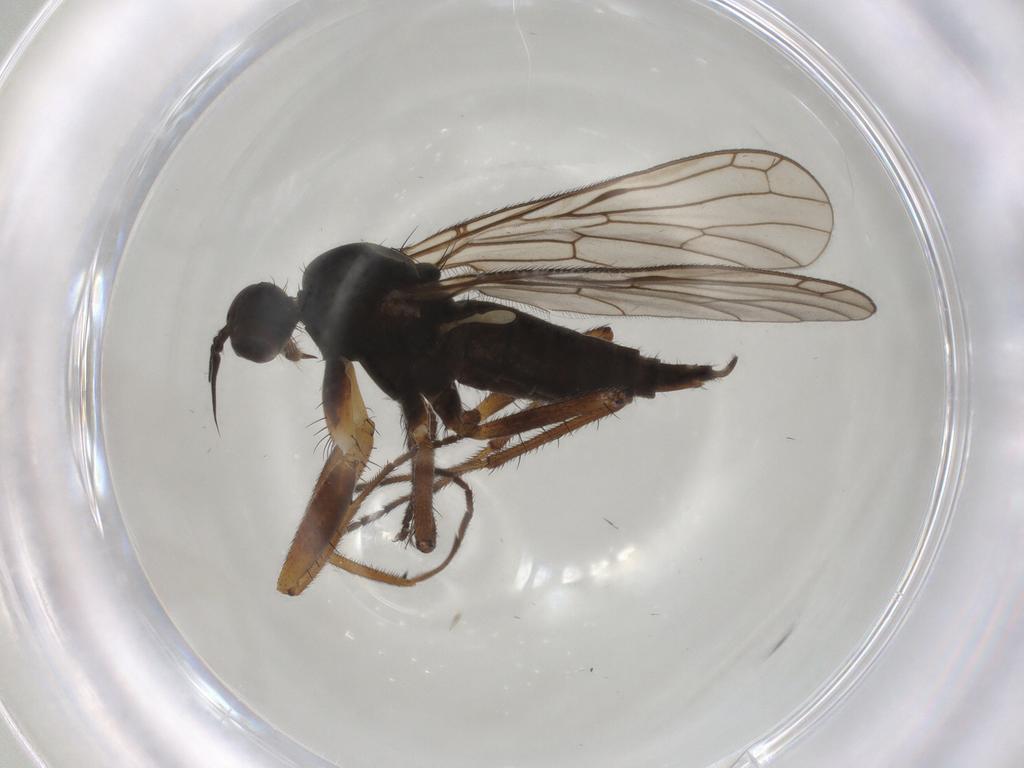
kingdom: Animalia
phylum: Arthropoda
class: Insecta
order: Diptera
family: Empididae
